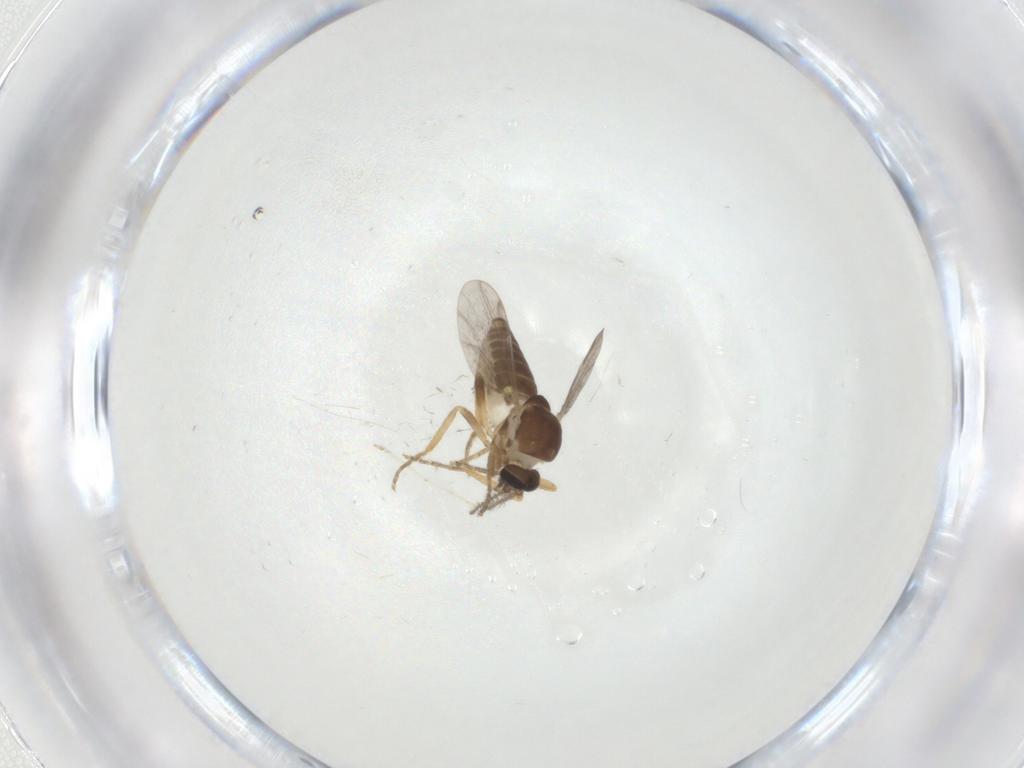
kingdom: Animalia
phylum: Arthropoda
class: Insecta
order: Diptera
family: Ceratopogonidae
